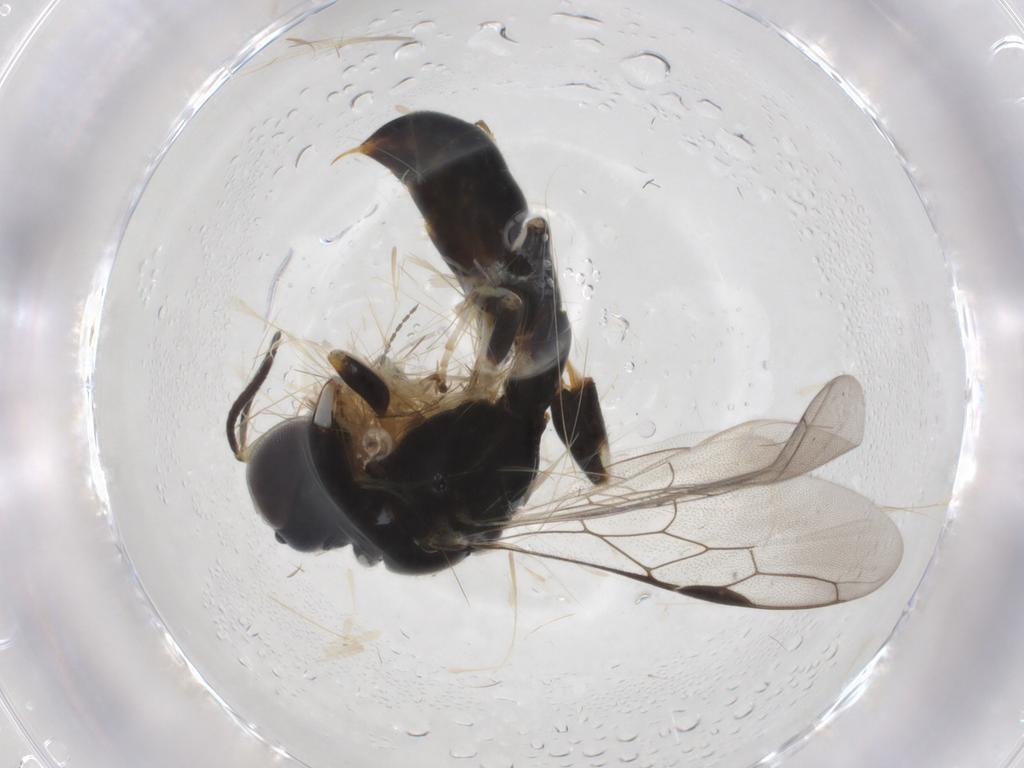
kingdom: Animalia
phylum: Arthropoda
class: Insecta
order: Hymenoptera
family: Crabronidae
